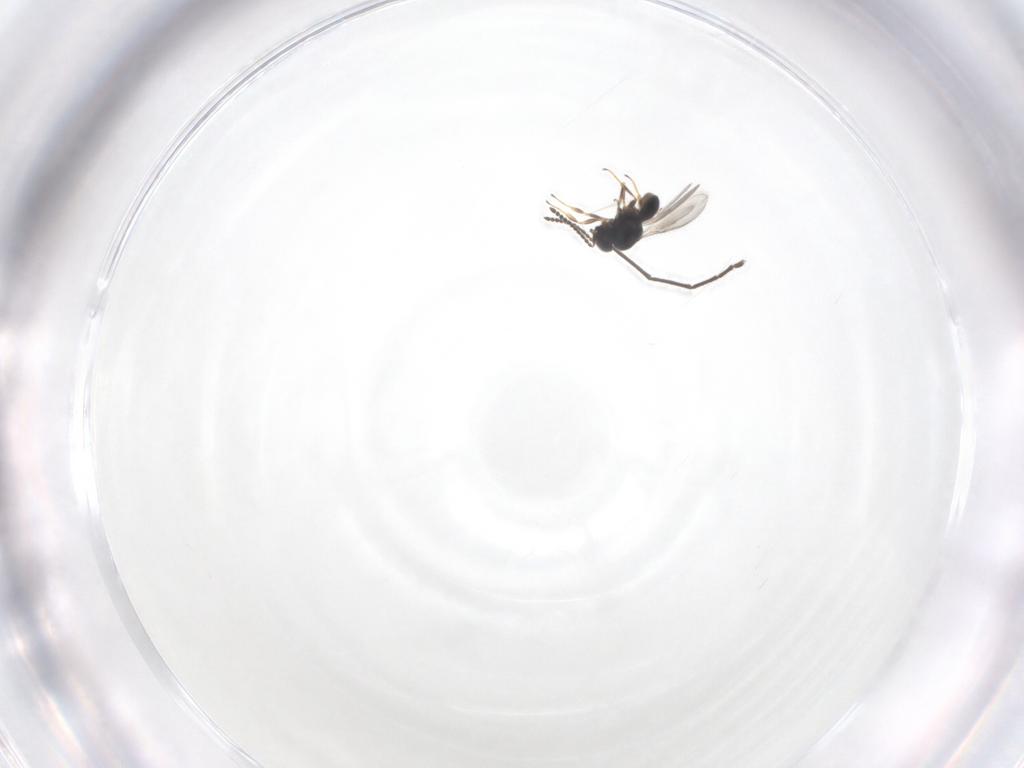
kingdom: Animalia
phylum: Arthropoda
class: Insecta
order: Hymenoptera
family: Scelionidae
